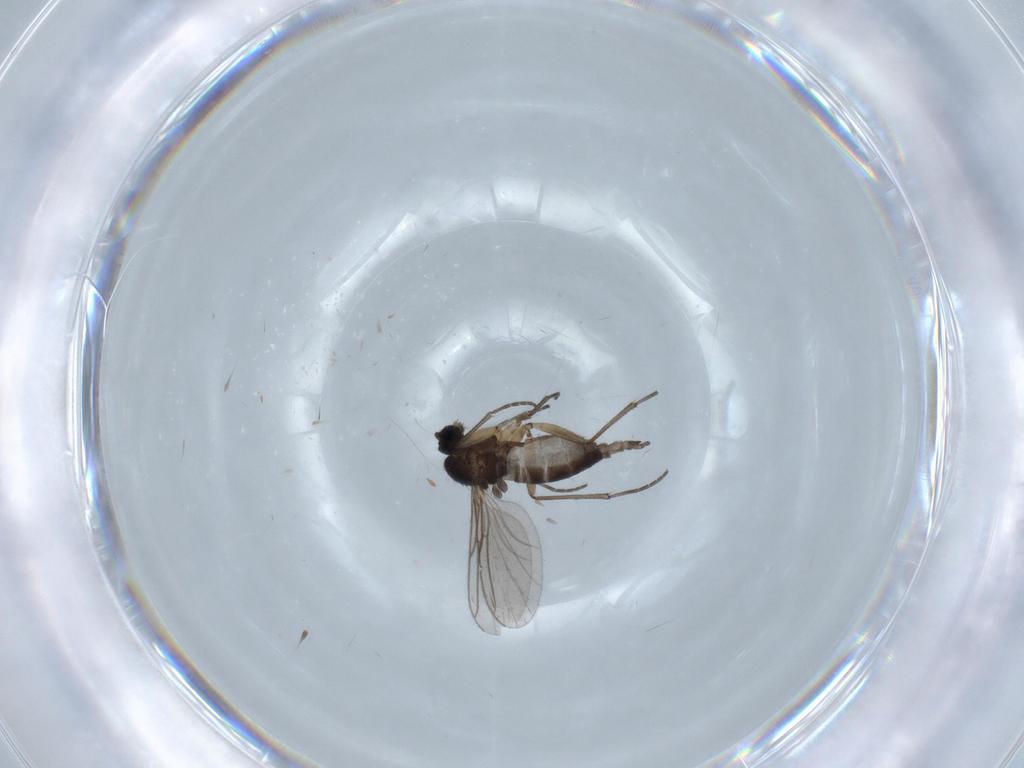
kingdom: Animalia
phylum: Arthropoda
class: Insecta
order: Diptera
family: Sciaridae
